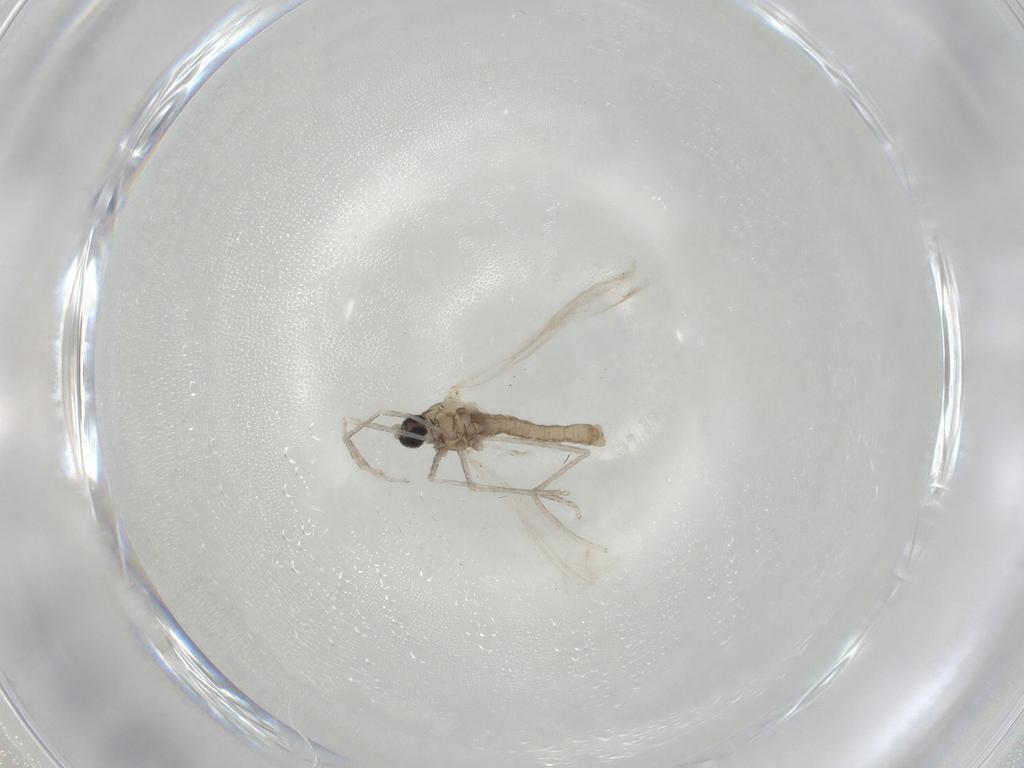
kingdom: Animalia
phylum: Arthropoda
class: Insecta
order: Diptera
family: Cecidomyiidae
